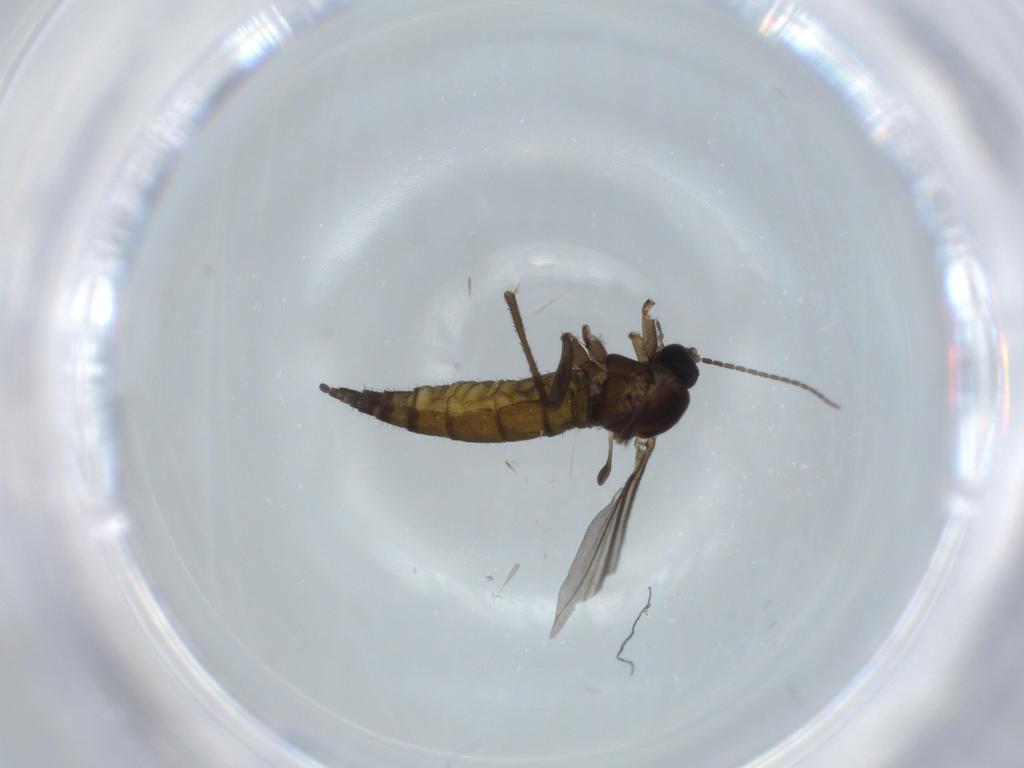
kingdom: Animalia
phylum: Arthropoda
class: Insecta
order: Diptera
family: Sciaridae
